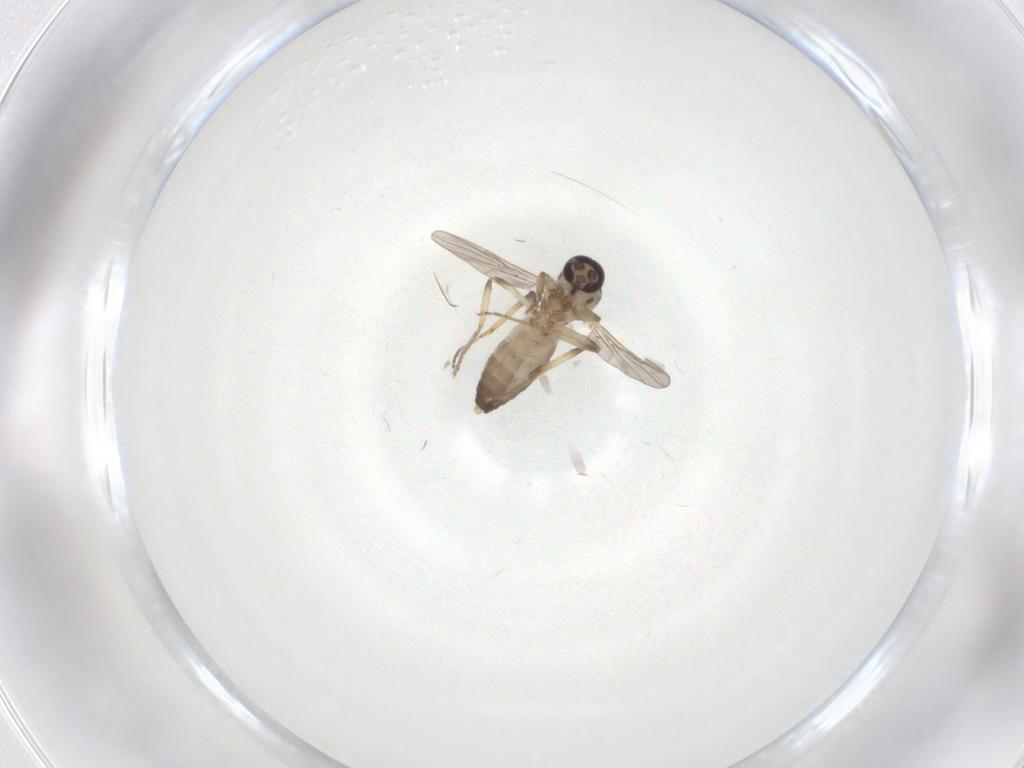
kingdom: Animalia
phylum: Arthropoda
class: Insecta
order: Diptera
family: Ceratopogonidae
